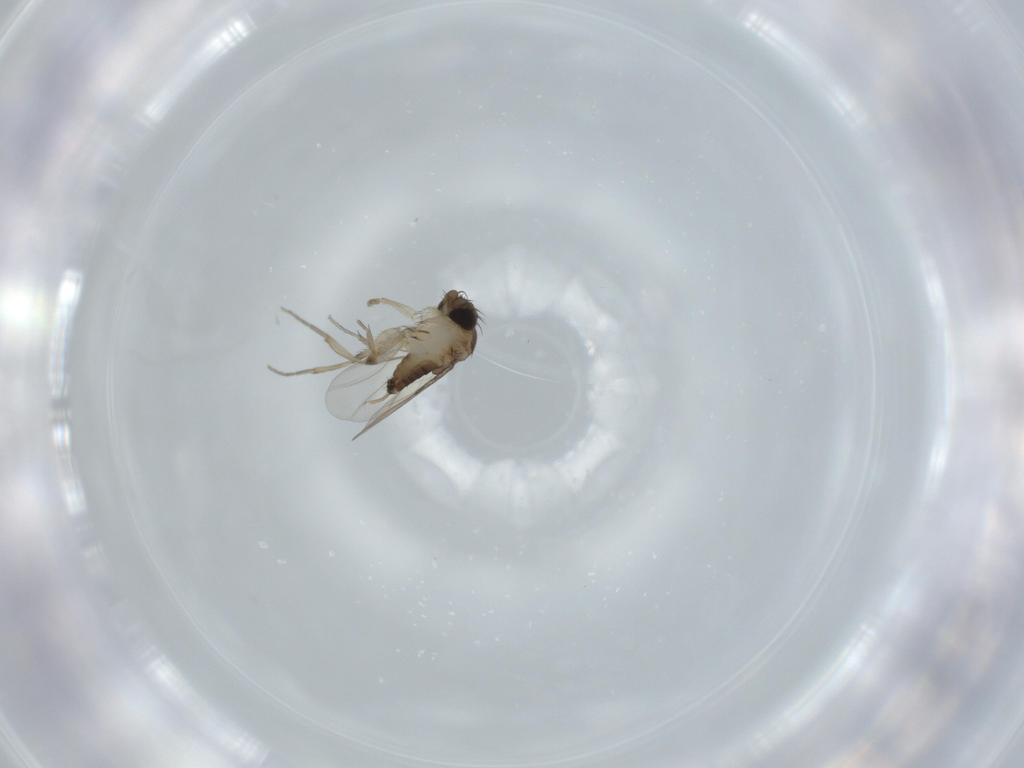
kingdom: Animalia
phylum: Arthropoda
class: Insecta
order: Diptera
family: Phoridae
